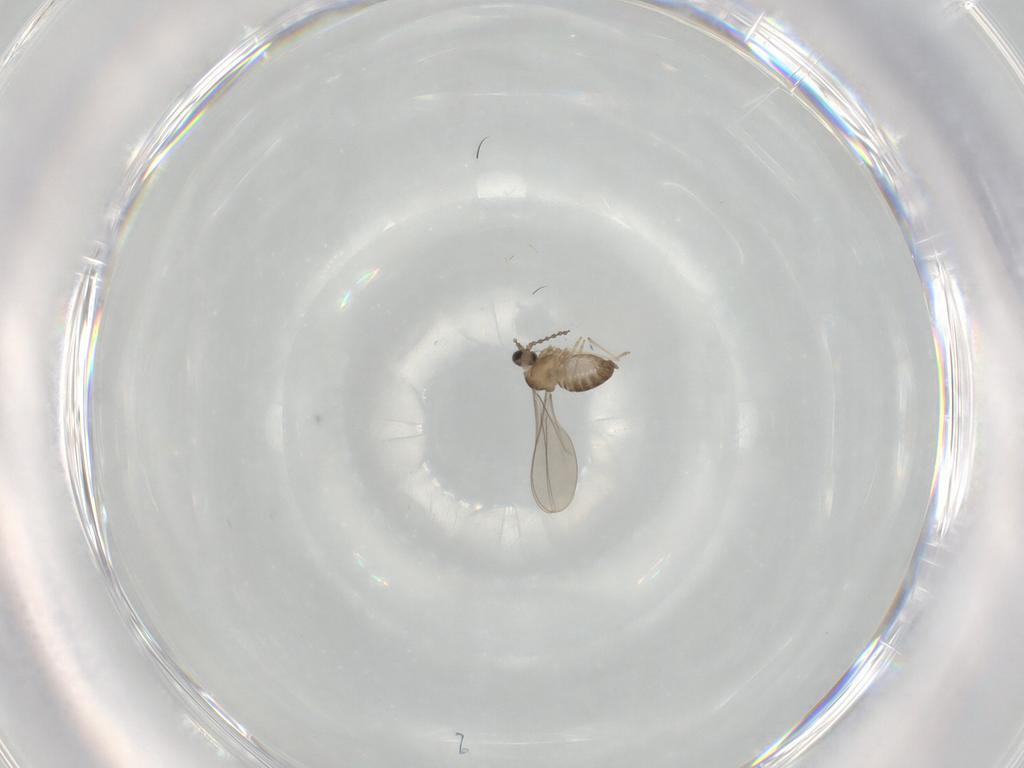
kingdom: Animalia
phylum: Arthropoda
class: Insecta
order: Diptera
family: Cecidomyiidae
